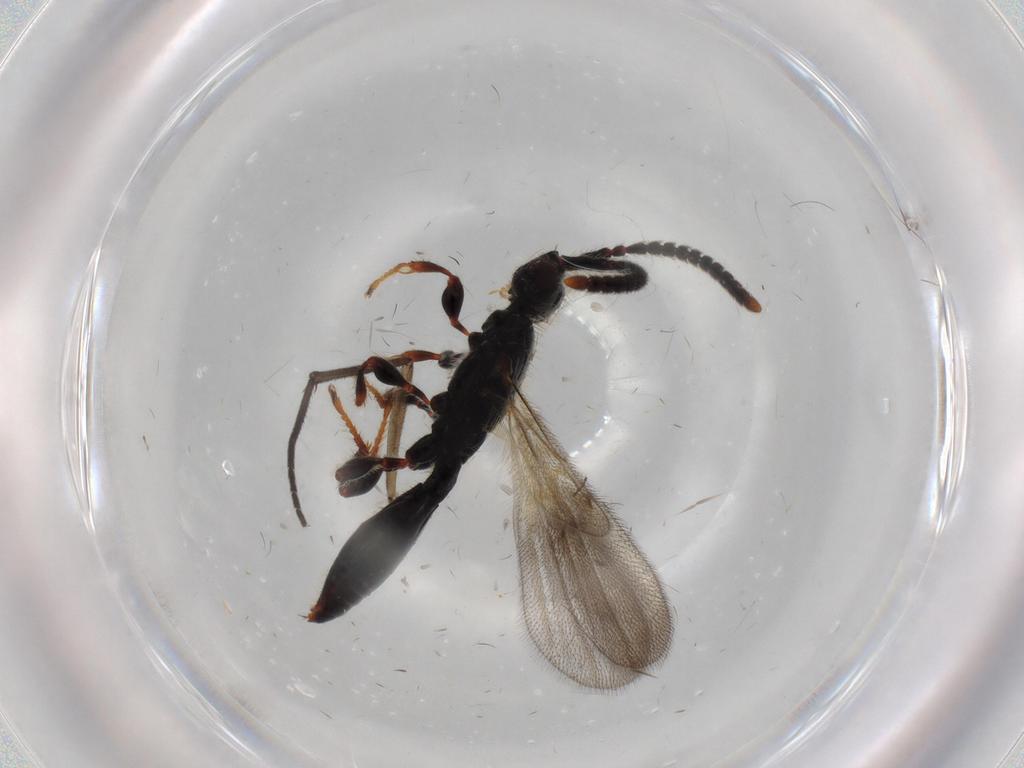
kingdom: Animalia
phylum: Arthropoda
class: Insecta
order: Hymenoptera
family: Diapriidae
